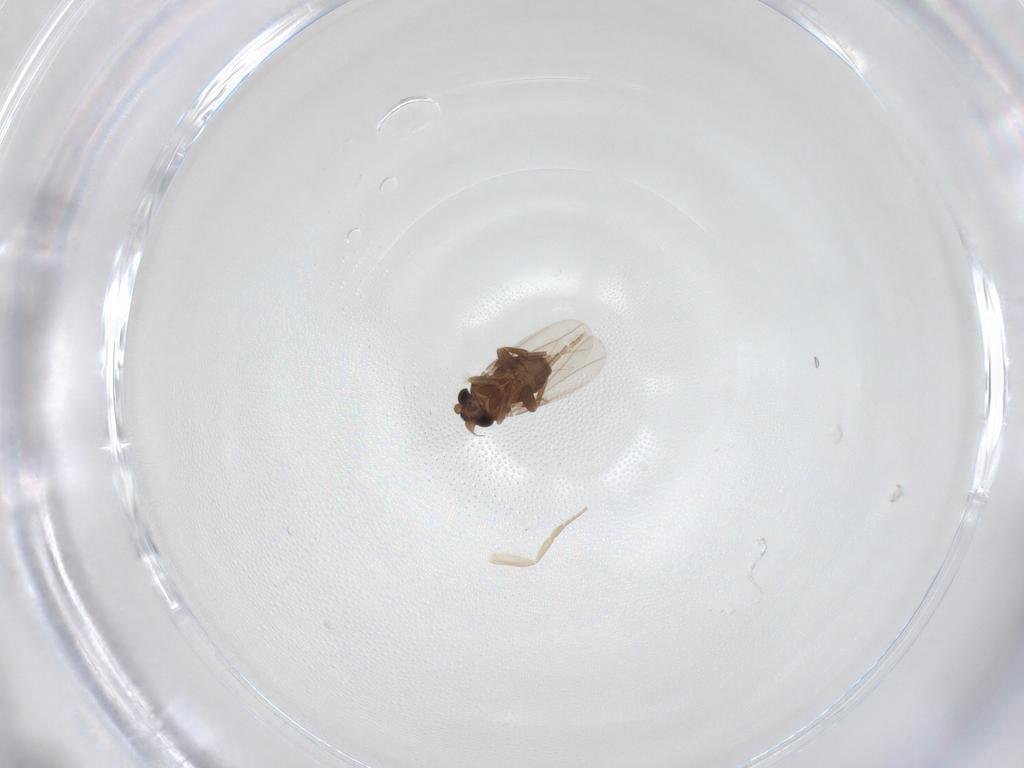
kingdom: Animalia
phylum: Arthropoda
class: Insecta
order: Diptera
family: Phoridae
